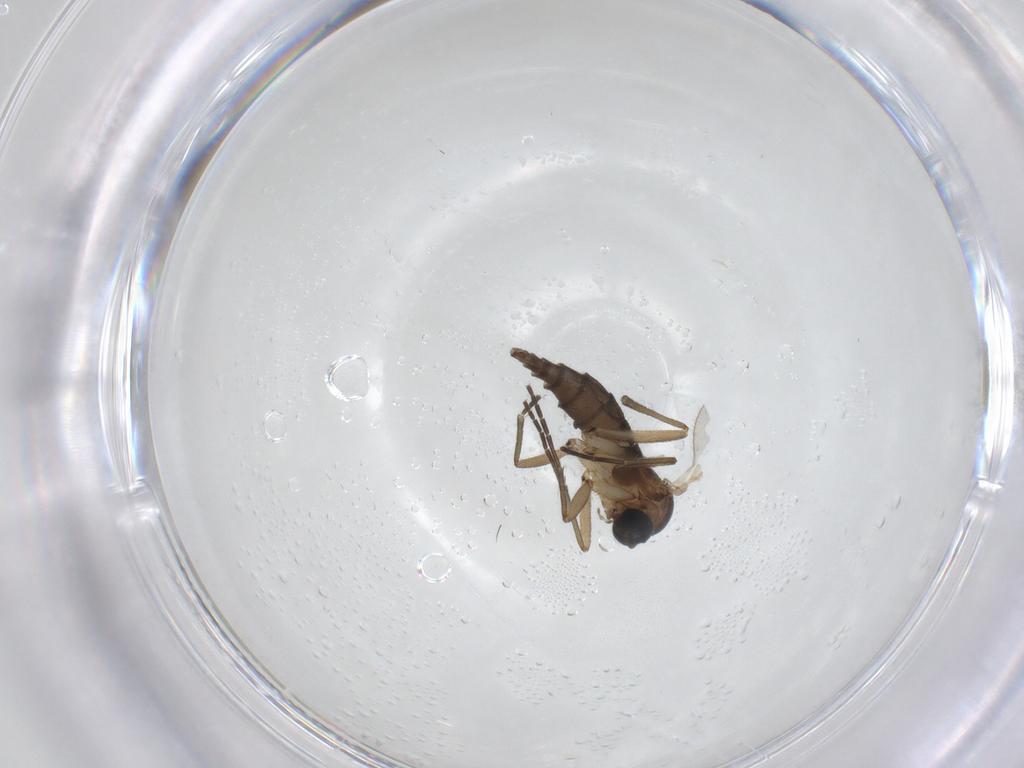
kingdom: Animalia
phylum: Arthropoda
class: Insecta
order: Diptera
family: Sciaridae
